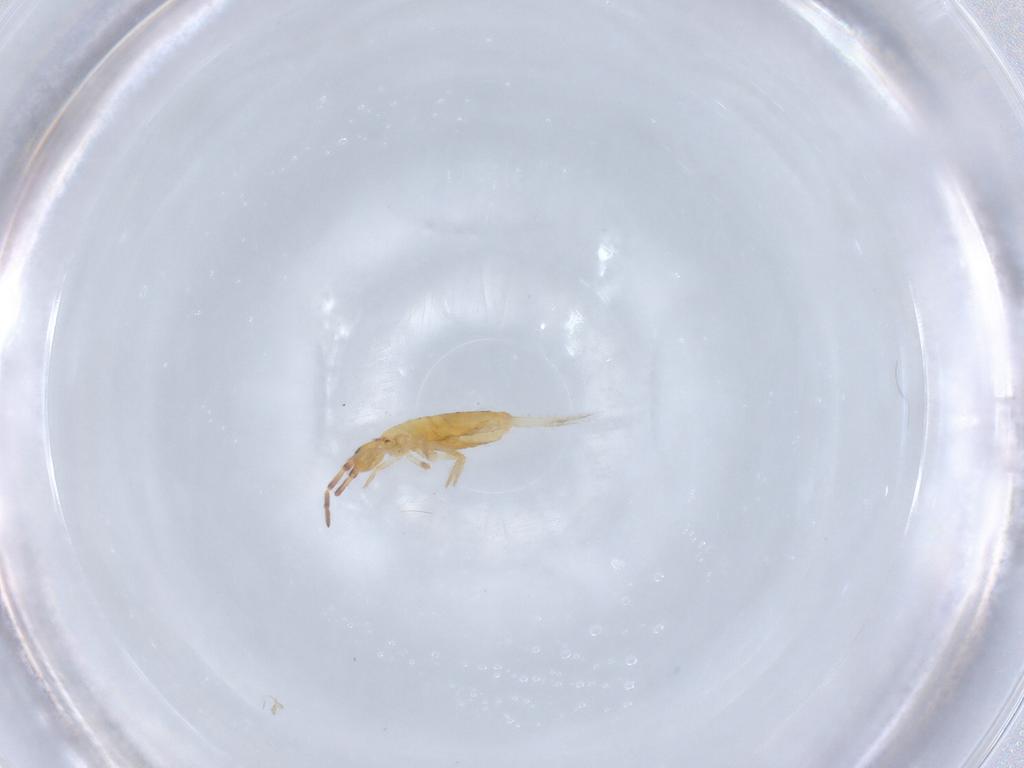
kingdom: Animalia
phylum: Arthropoda
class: Collembola
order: Entomobryomorpha
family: Entomobryidae
